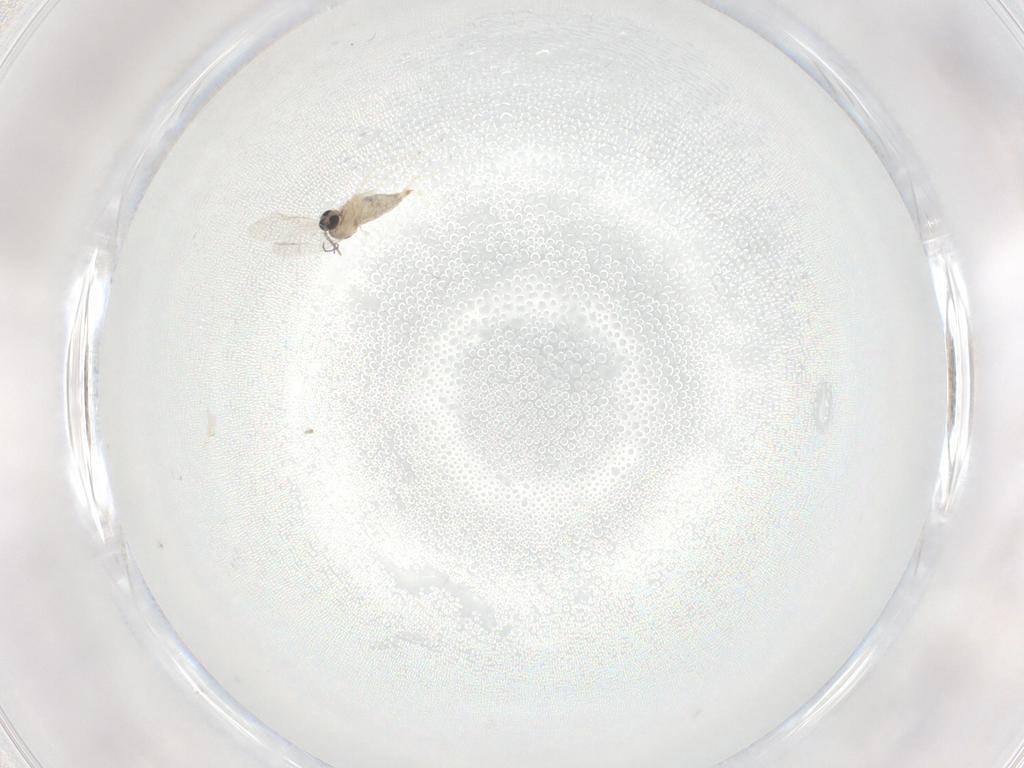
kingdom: Animalia
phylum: Arthropoda
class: Insecta
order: Diptera
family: Cecidomyiidae
